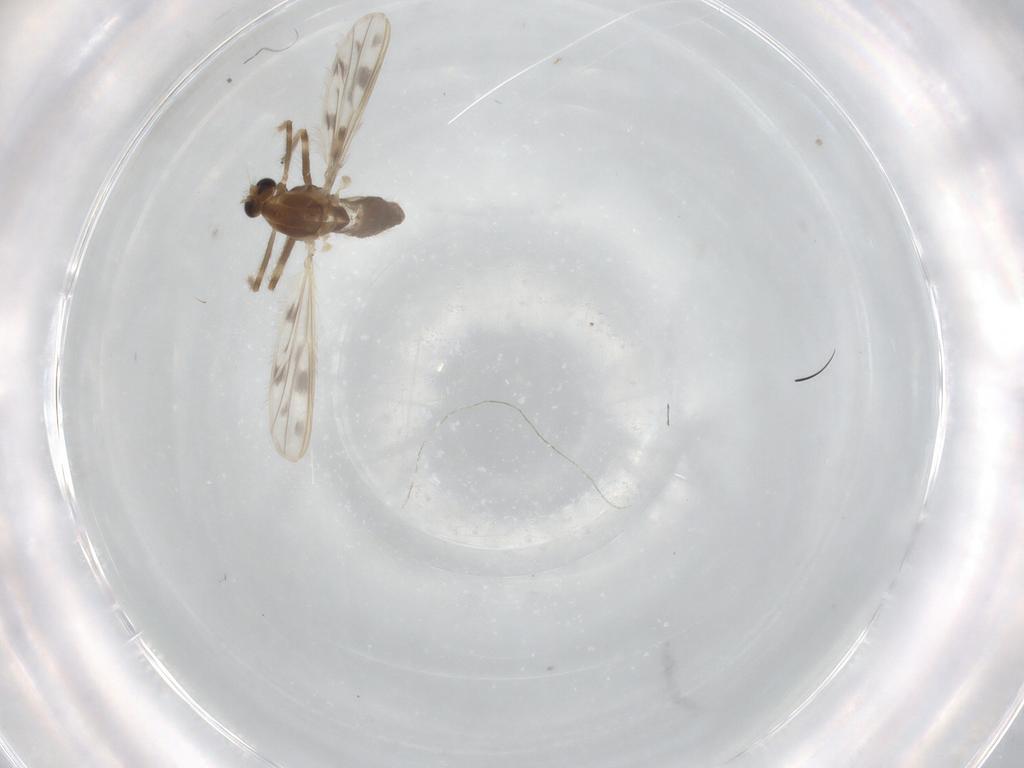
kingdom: Animalia
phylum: Arthropoda
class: Insecta
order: Diptera
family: Chironomidae
